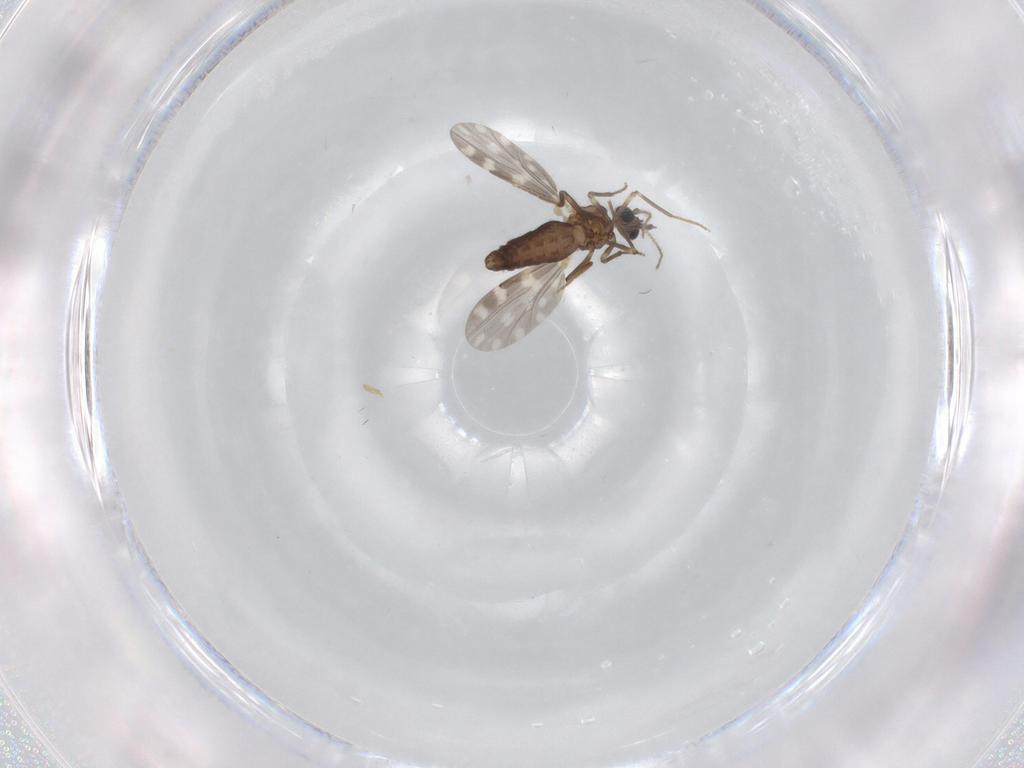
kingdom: Animalia
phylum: Arthropoda
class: Insecta
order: Diptera
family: Ceratopogonidae
